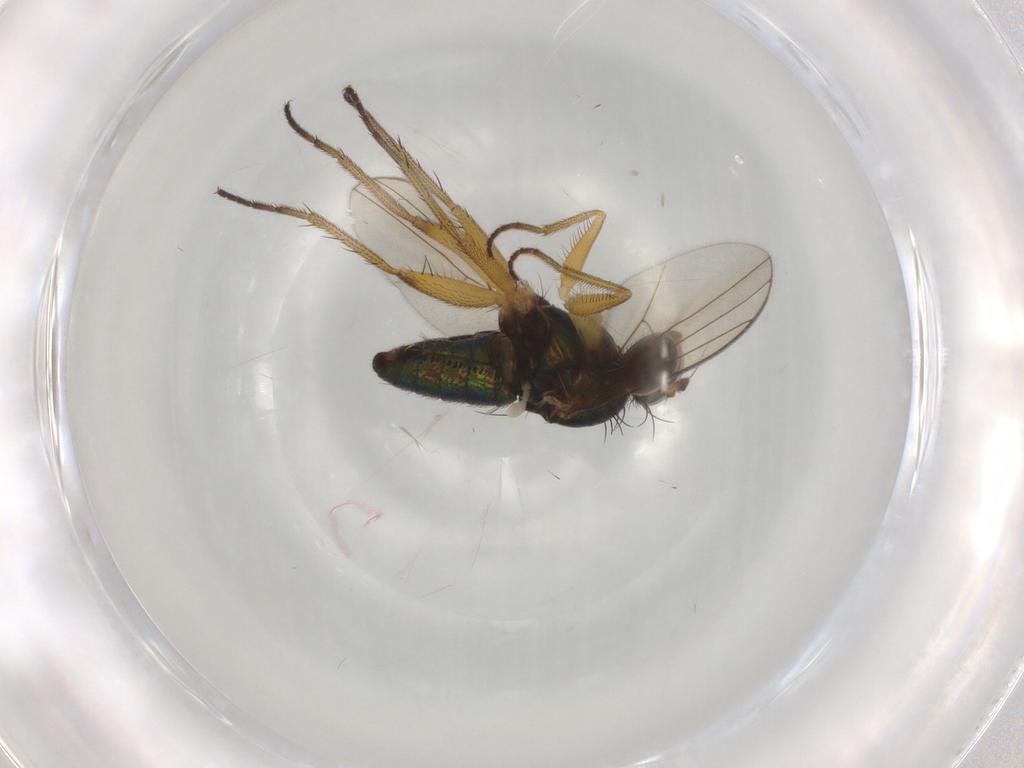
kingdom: Animalia
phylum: Arthropoda
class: Insecta
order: Diptera
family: Dolichopodidae
